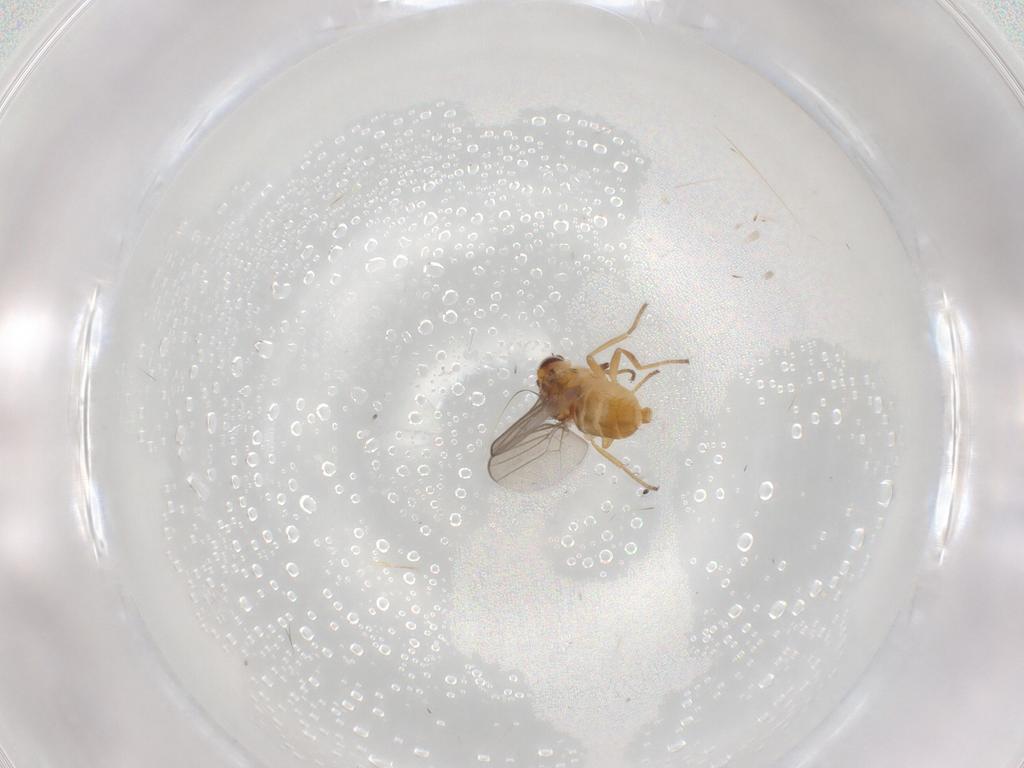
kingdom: Animalia
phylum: Arthropoda
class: Insecta
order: Diptera
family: Chloropidae
